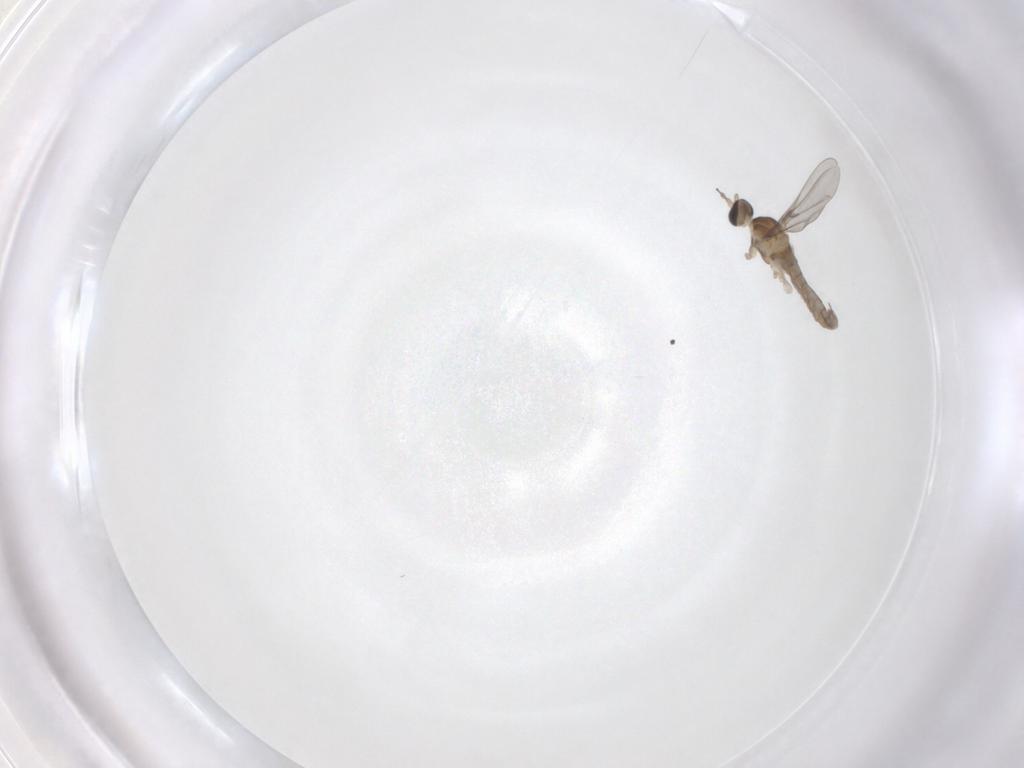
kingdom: Animalia
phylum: Arthropoda
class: Insecta
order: Diptera
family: Cecidomyiidae
